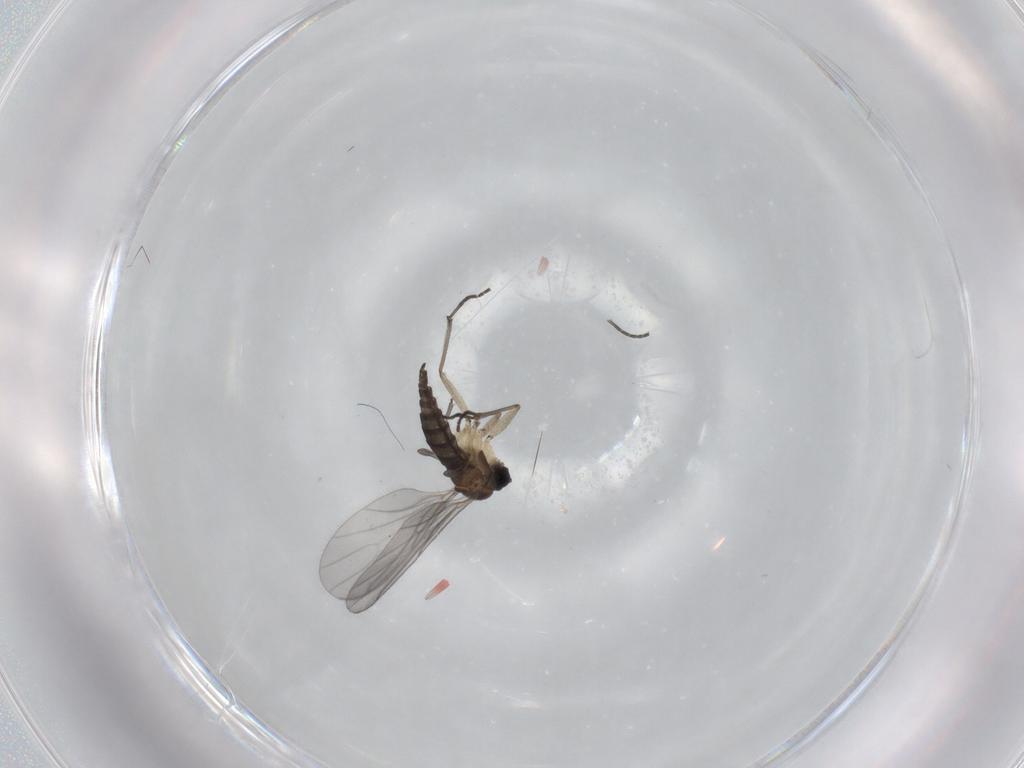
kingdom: Animalia
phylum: Arthropoda
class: Insecta
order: Diptera
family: Sciaridae
